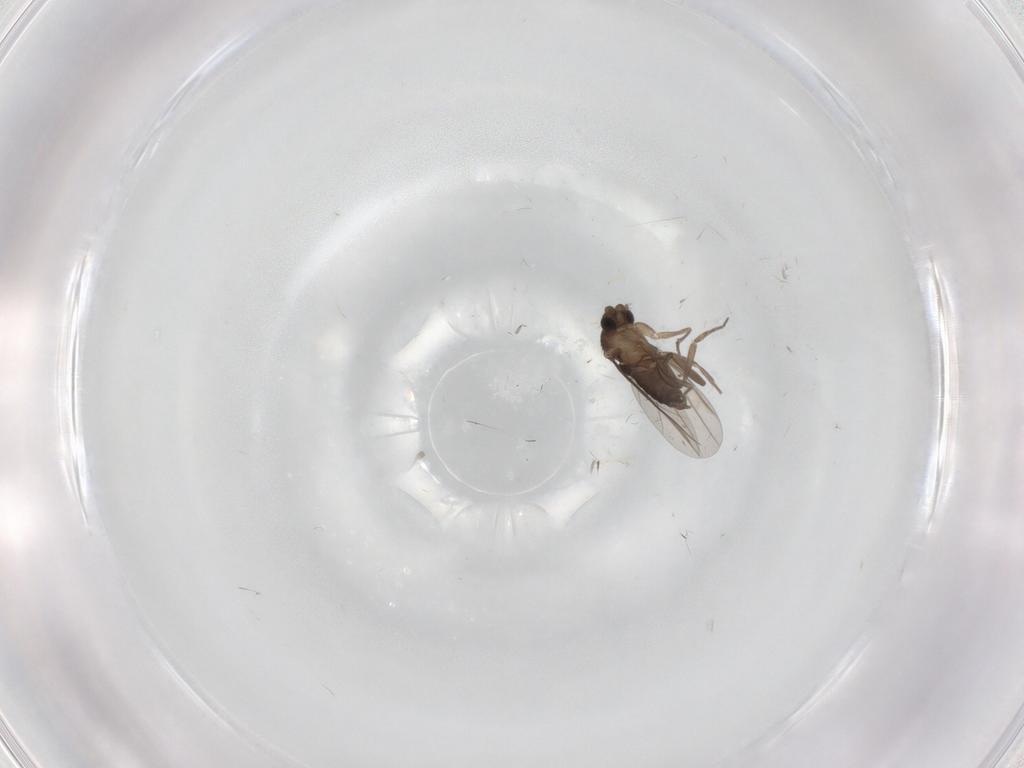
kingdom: Animalia
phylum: Arthropoda
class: Insecta
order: Diptera
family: Phoridae
